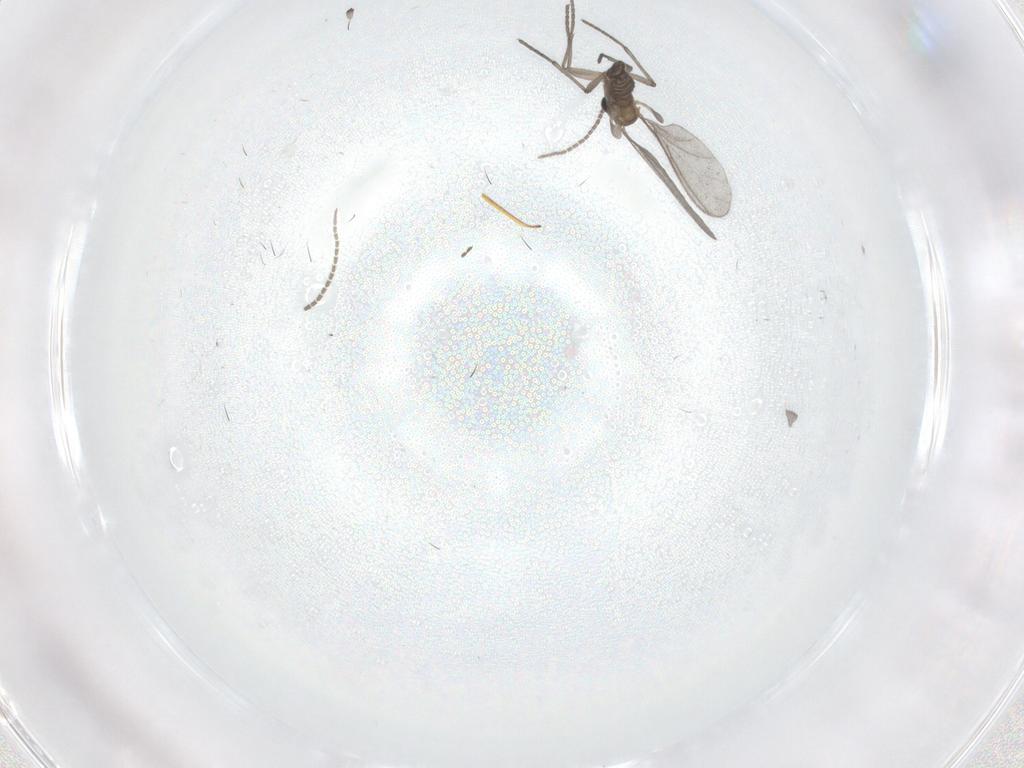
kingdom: Animalia
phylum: Arthropoda
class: Insecta
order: Diptera
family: Sciaridae
